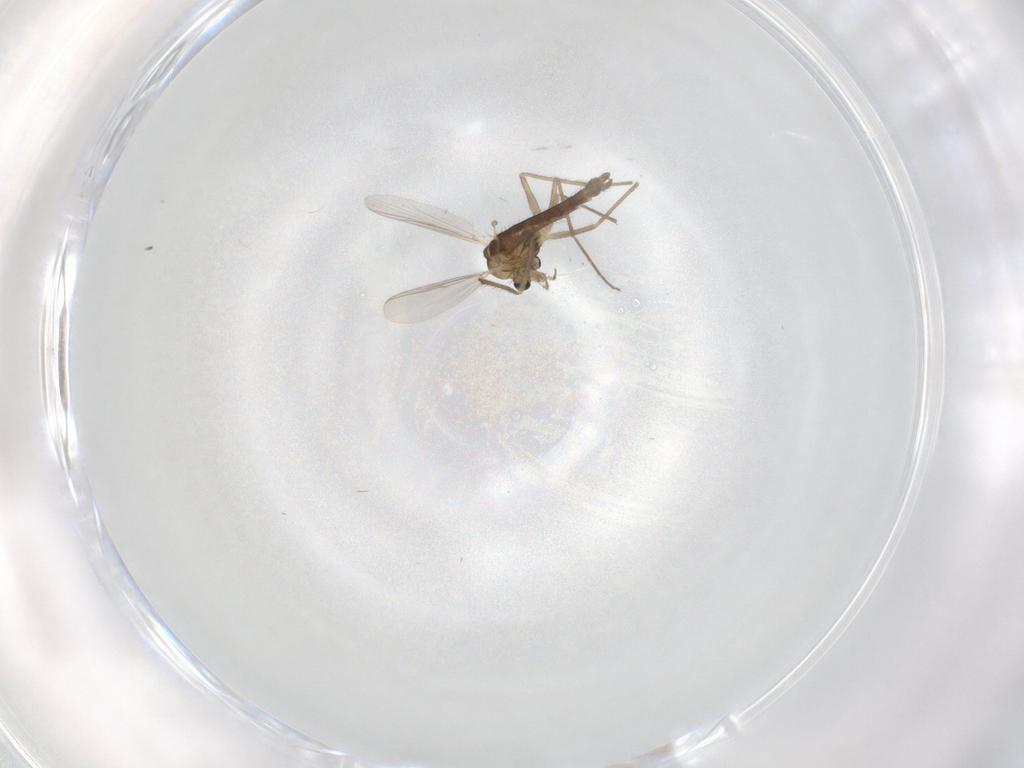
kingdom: Animalia
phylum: Arthropoda
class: Insecta
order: Diptera
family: Chironomidae
